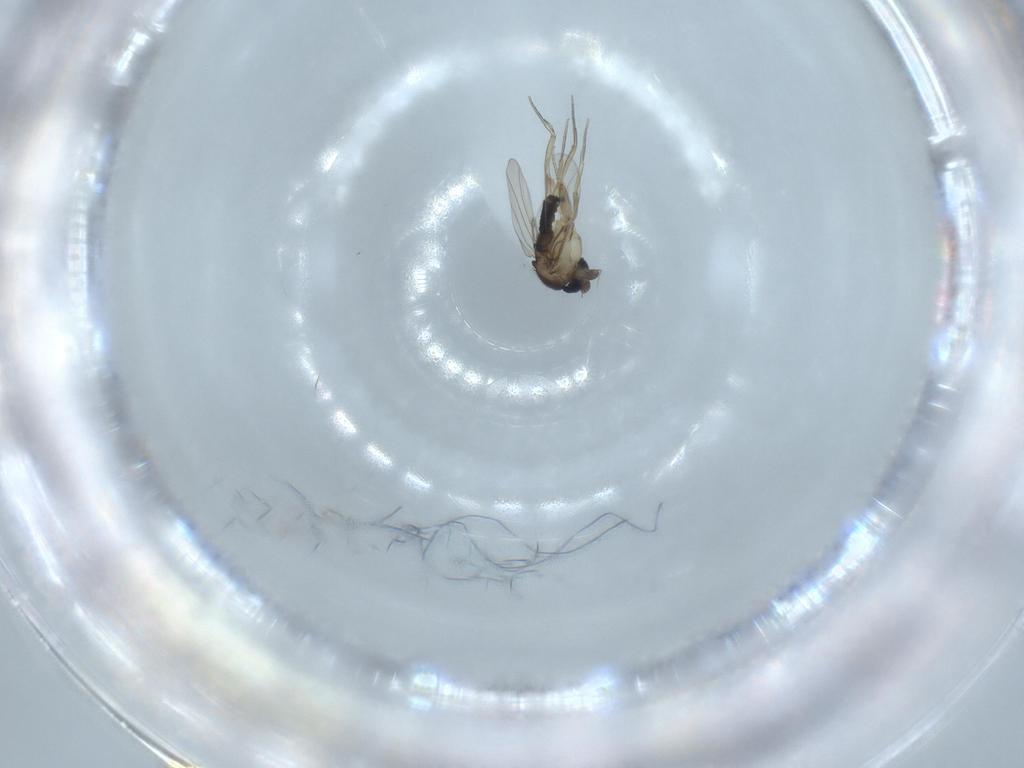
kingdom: Animalia
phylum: Arthropoda
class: Insecta
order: Diptera
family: Phoridae
